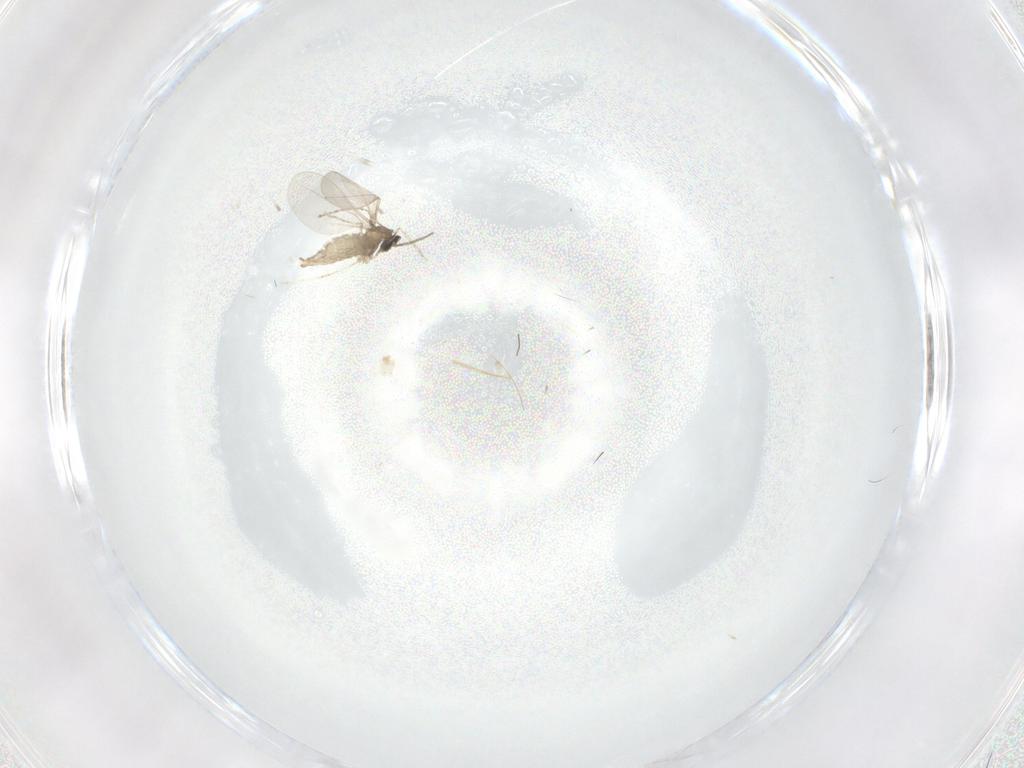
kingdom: Animalia
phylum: Arthropoda
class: Insecta
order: Diptera
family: Cecidomyiidae
